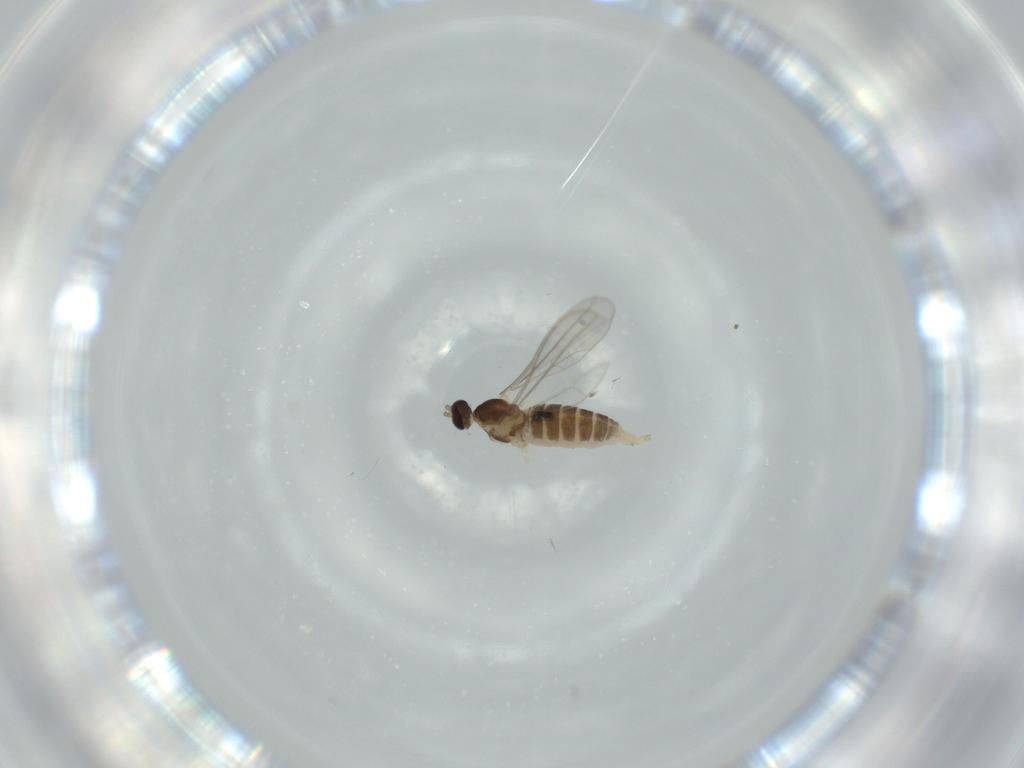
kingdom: Animalia
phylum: Arthropoda
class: Insecta
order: Diptera
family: Cecidomyiidae
